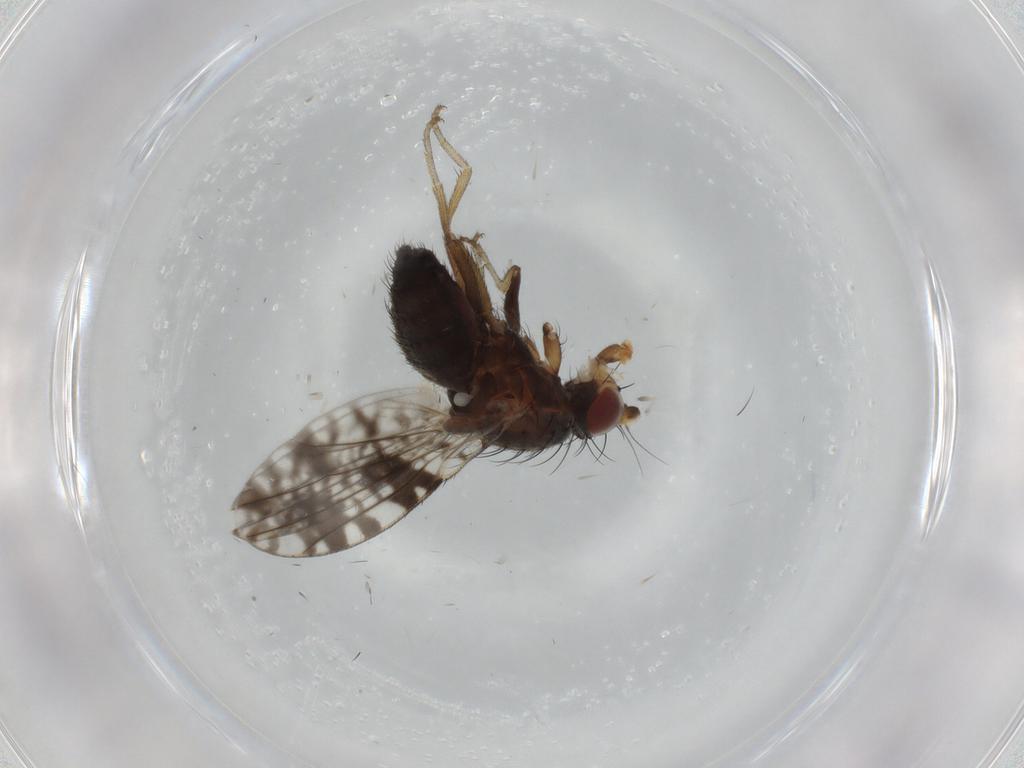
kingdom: Animalia
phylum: Arthropoda
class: Insecta
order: Diptera
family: Tephritidae
